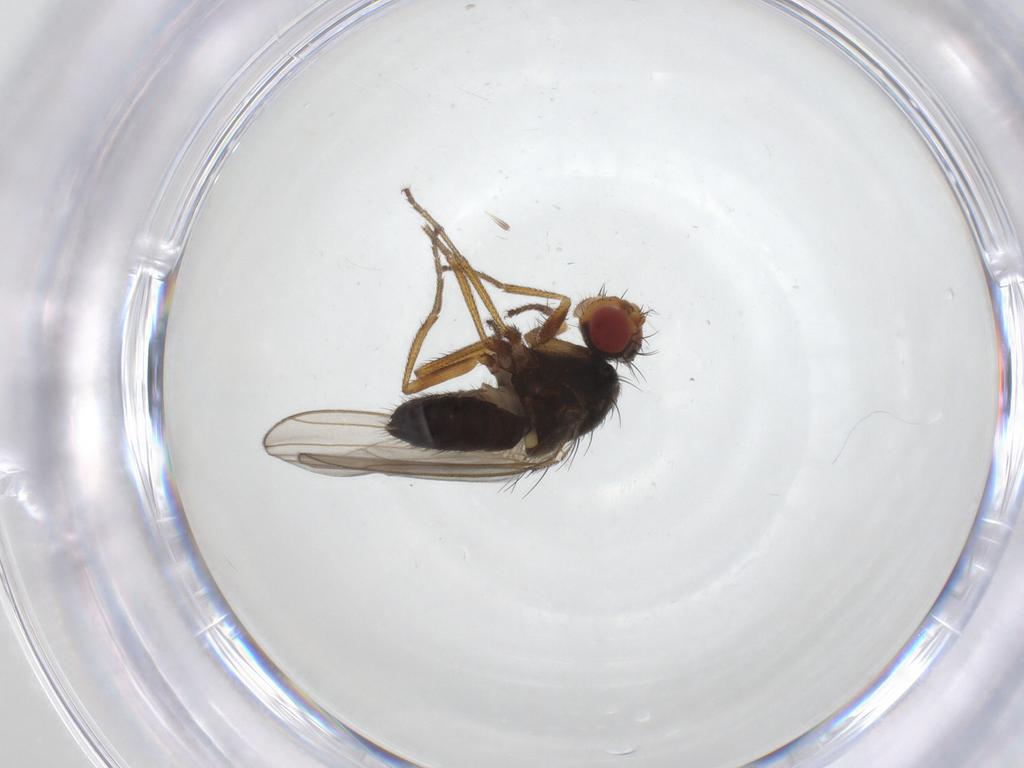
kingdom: Animalia
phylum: Arthropoda
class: Insecta
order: Diptera
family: Drosophilidae
